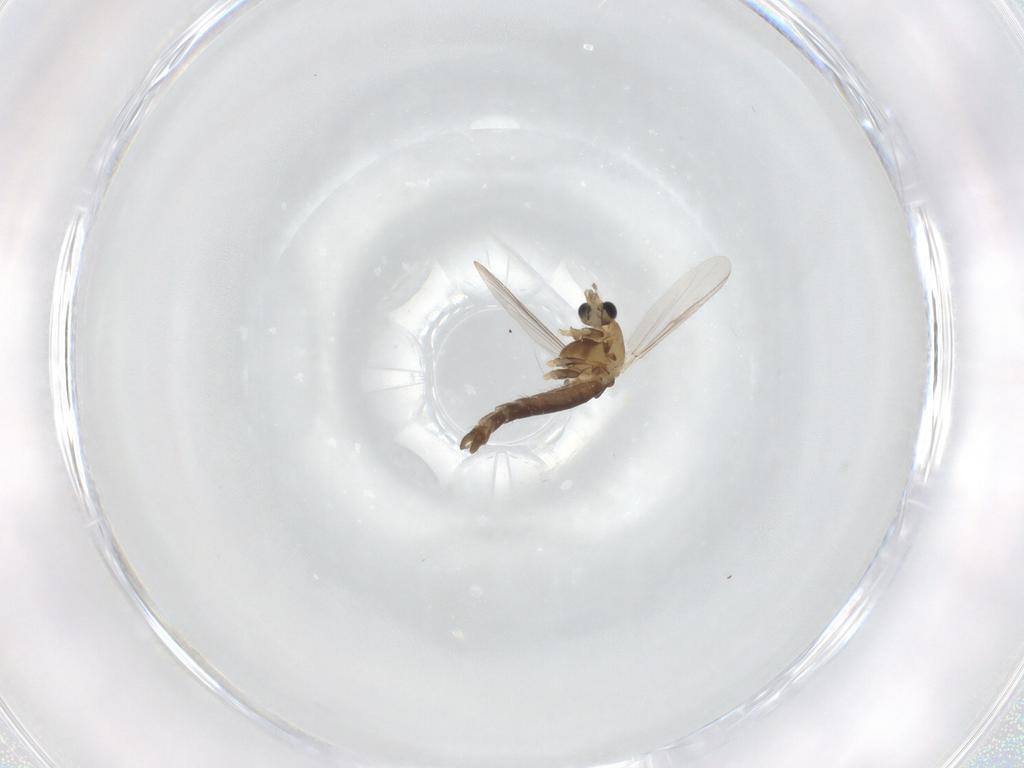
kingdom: Animalia
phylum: Arthropoda
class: Insecta
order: Diptera
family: Chironomidae
